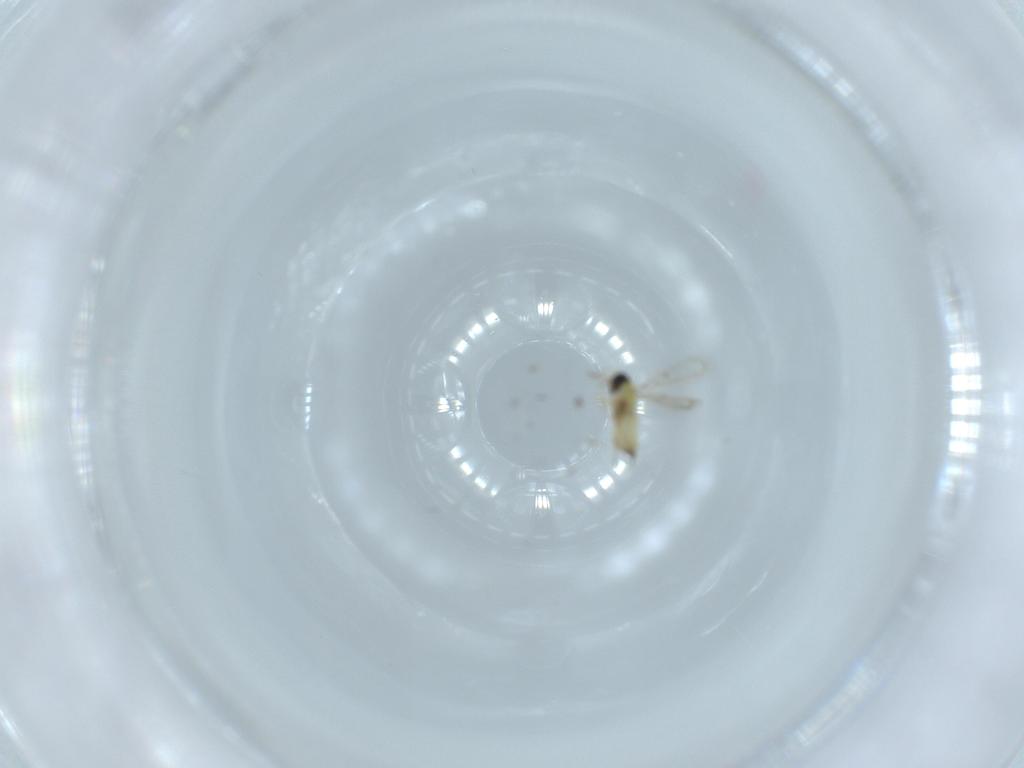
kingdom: Animalia
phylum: Arthropoda
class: Insecta
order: Hymenoptera
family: Trichogrammatidae
